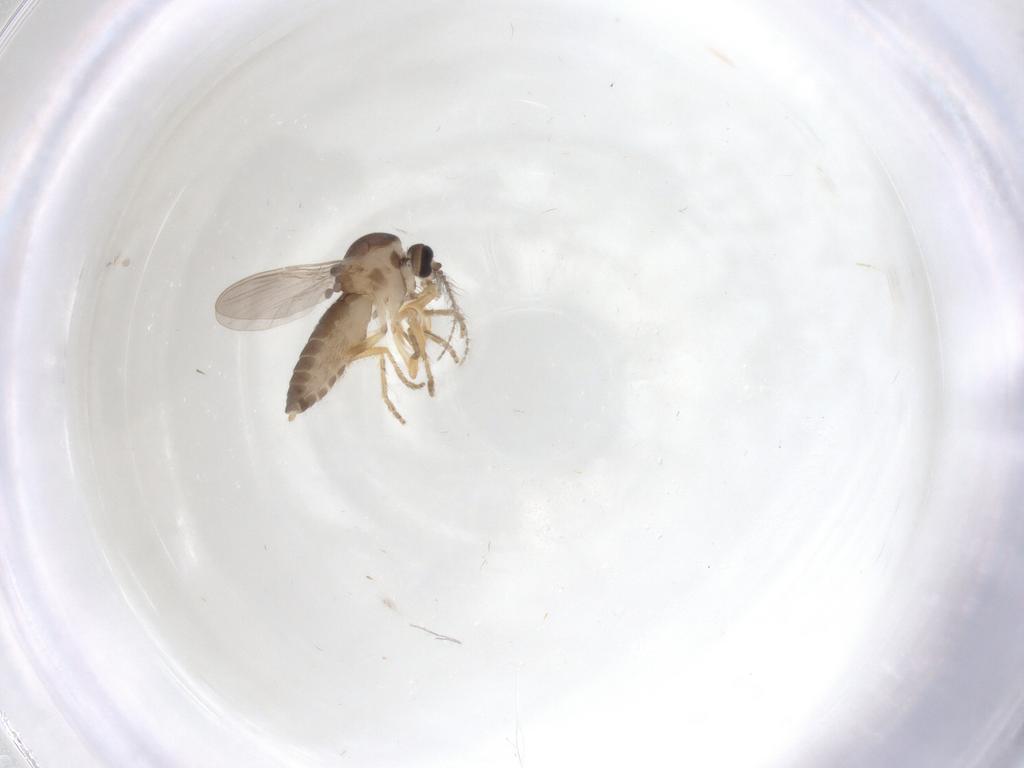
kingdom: Animalia
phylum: Arthropoda
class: Insecta
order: Diptera
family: Ceratopogonidae
